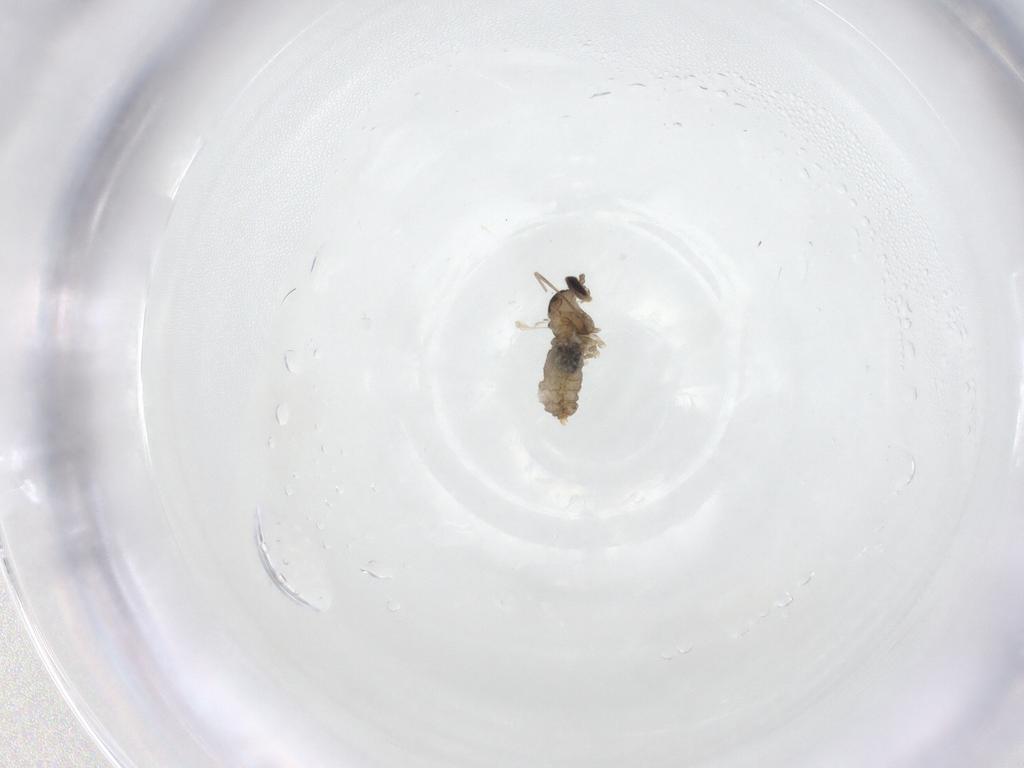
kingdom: Animalia
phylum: Arthropoda
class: Insecta
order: Diptera
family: Cecidomyiidae
